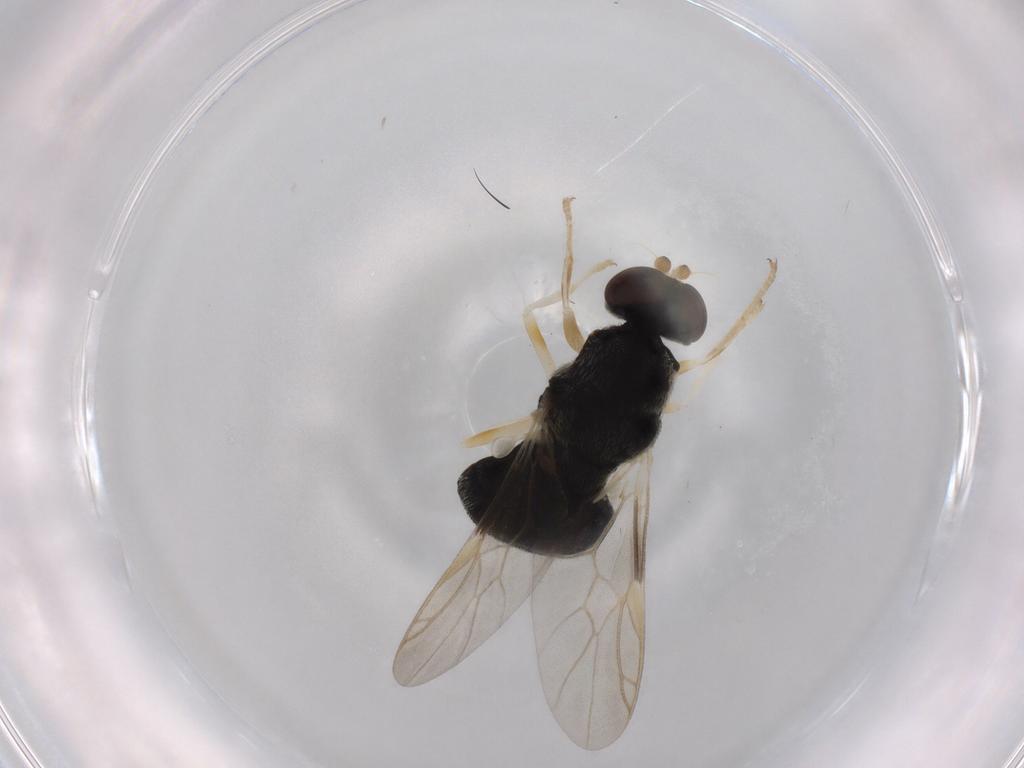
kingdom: Animalia
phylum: Arthropoda
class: Insecta
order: Diptera
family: Stratiomyidae
